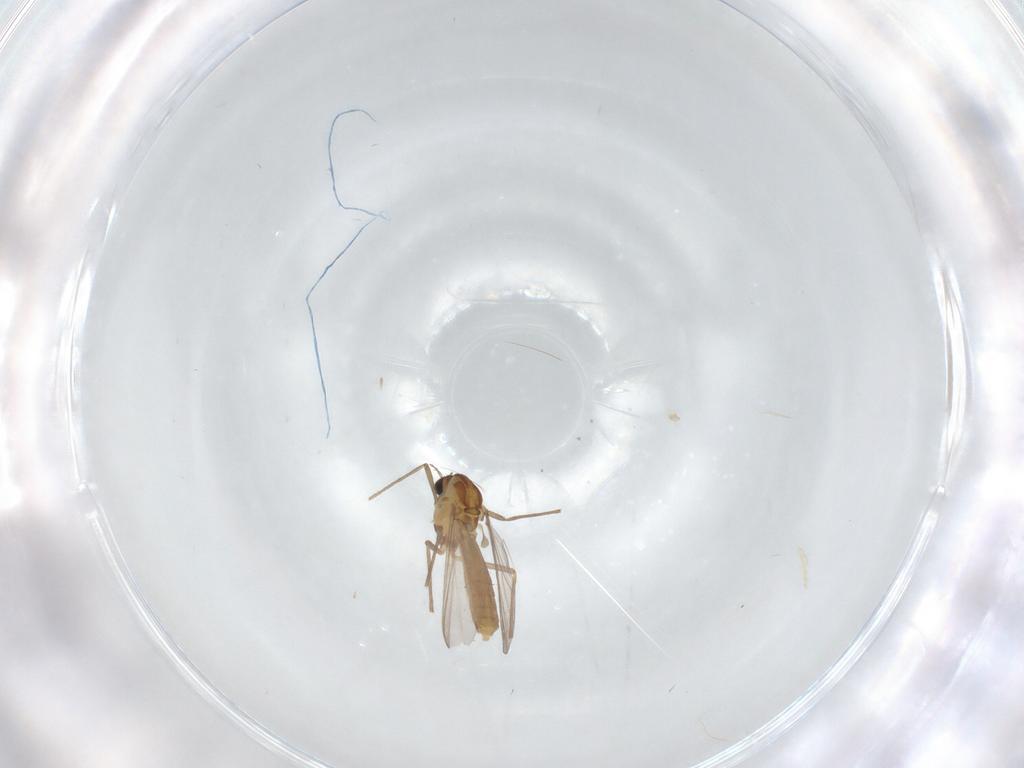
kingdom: Animalia
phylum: Arthropoda
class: Insecta
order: Diptera
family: Chironomidae
